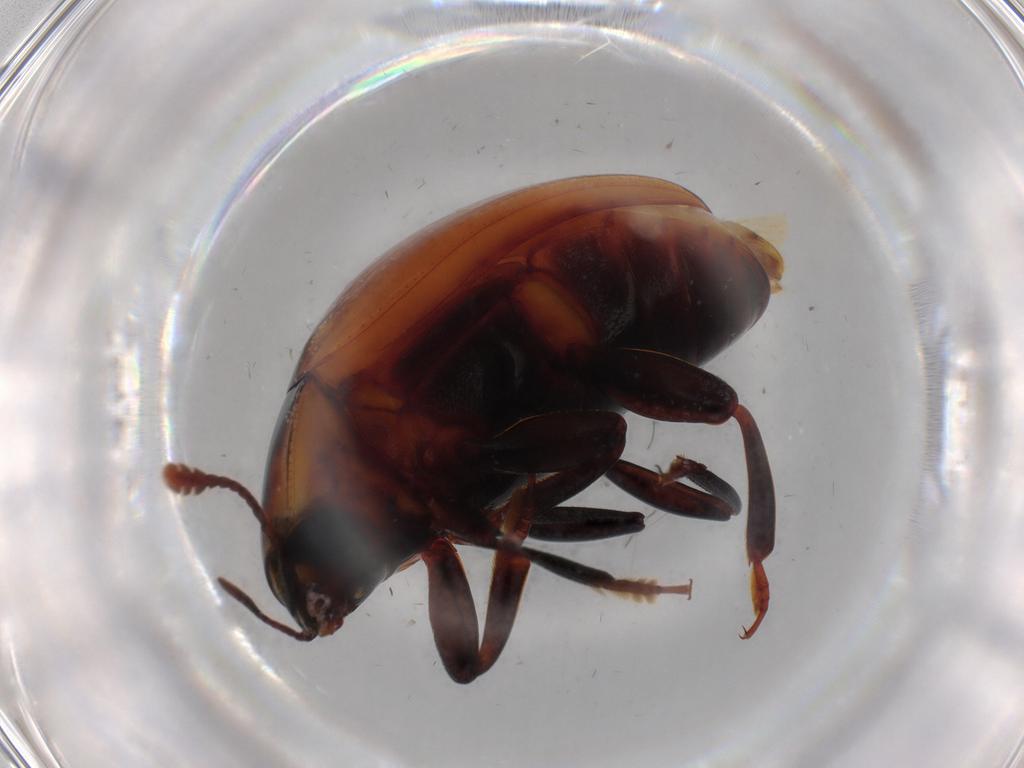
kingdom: Animalia
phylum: Arthropoda
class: Insecta
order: Coleoptera
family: Zopheridae
